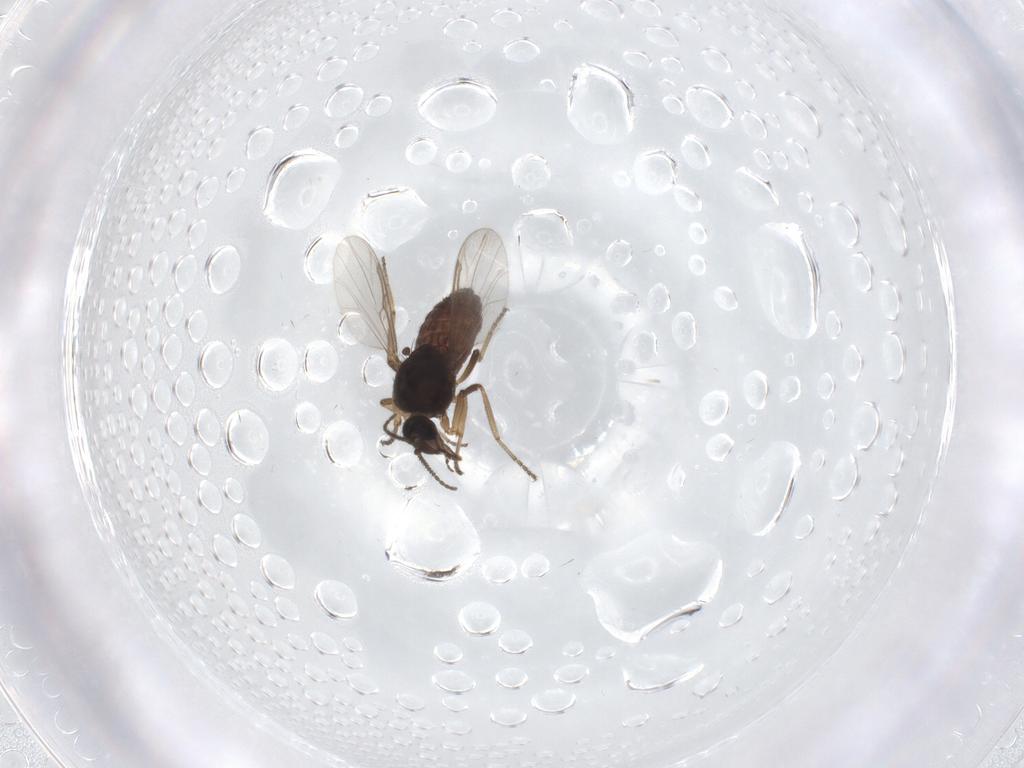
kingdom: Animalia
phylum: Arthropoda
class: Insecta
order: Diptera
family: Ceratopogonidae
